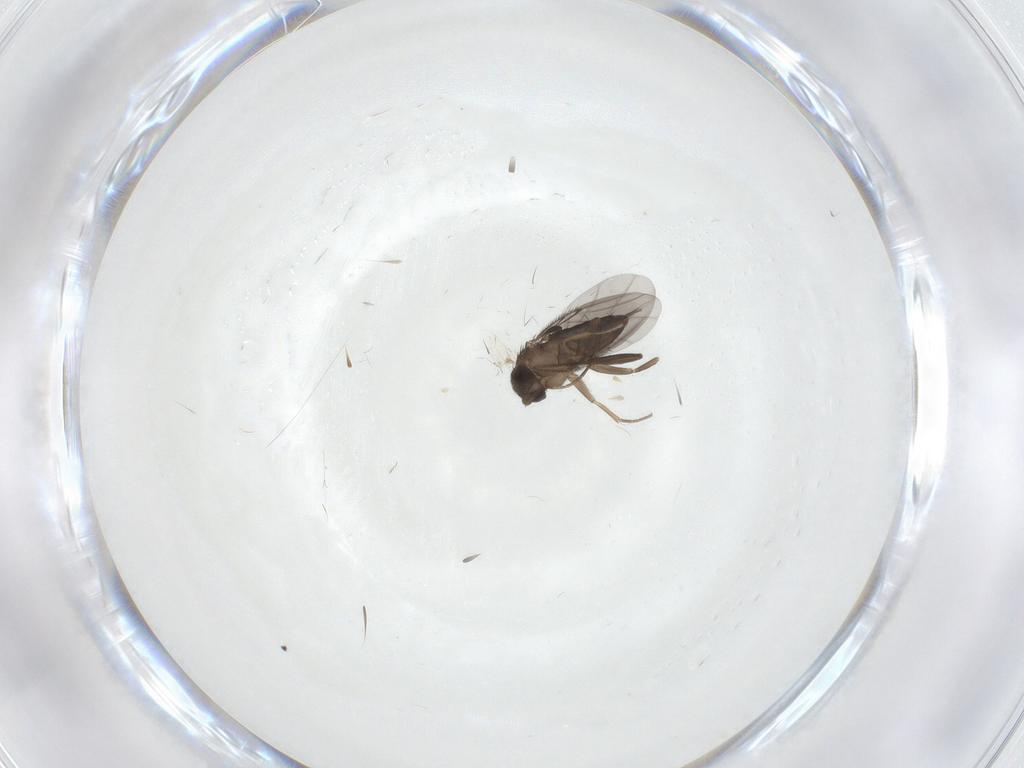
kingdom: Animalia
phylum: Arthropoda
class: Insecta
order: Diptera
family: Phoridae
